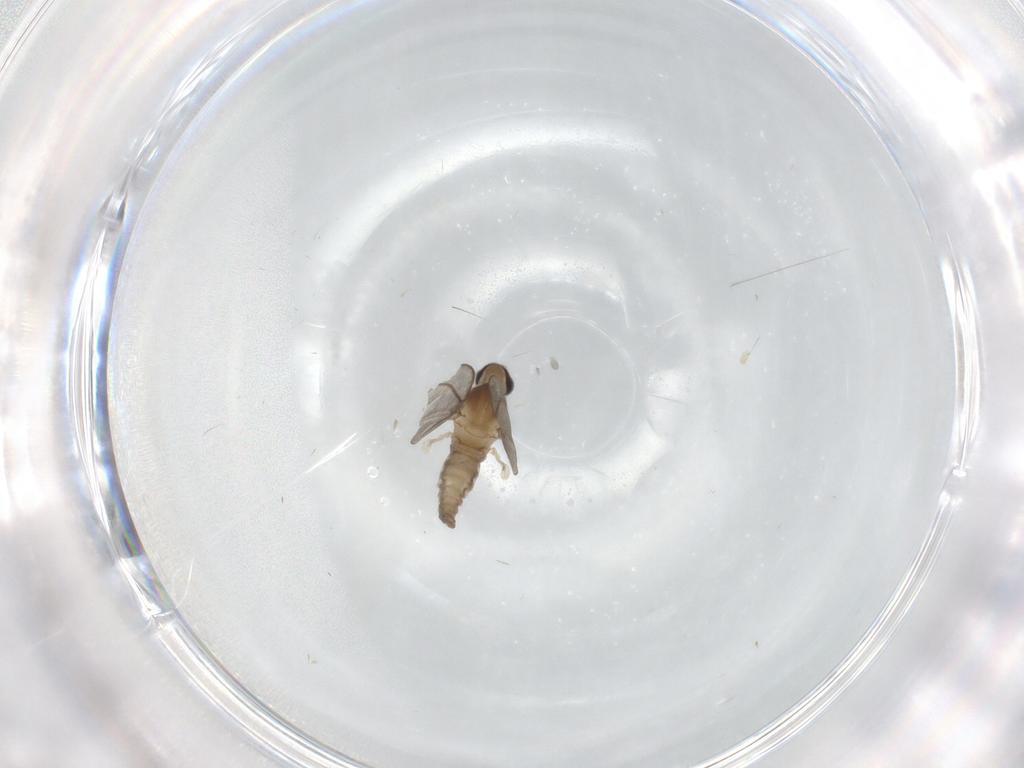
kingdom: Animalia
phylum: Arthropoda
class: Insecta
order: Diptera
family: Cecidomyiidae
